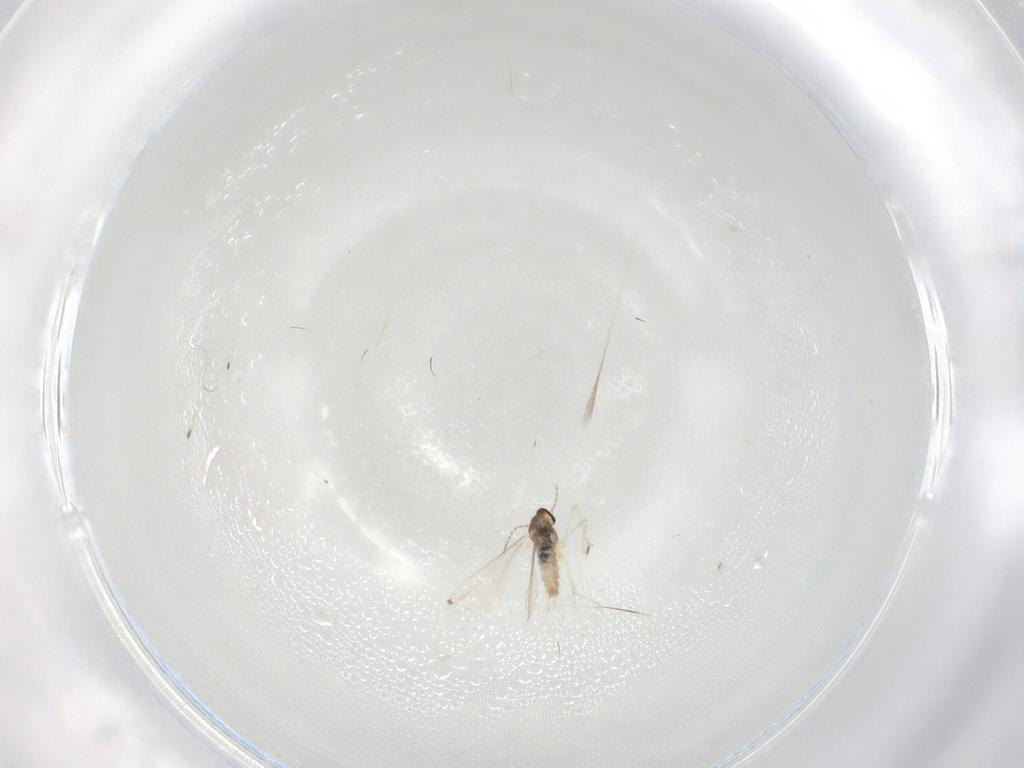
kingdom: Animalia
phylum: Arthropoda
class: Insecta
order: Diptera
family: Cecidomyiidae
